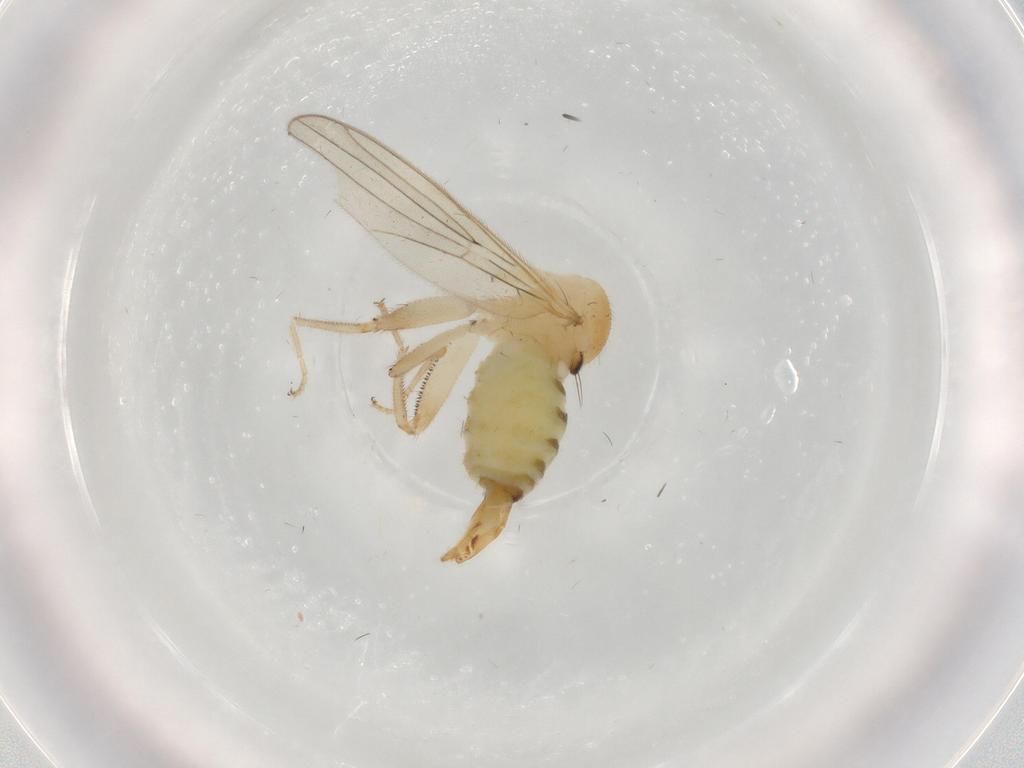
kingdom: Animalia
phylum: Arthropoda
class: Insecta
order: Diptera
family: Hybotidae
